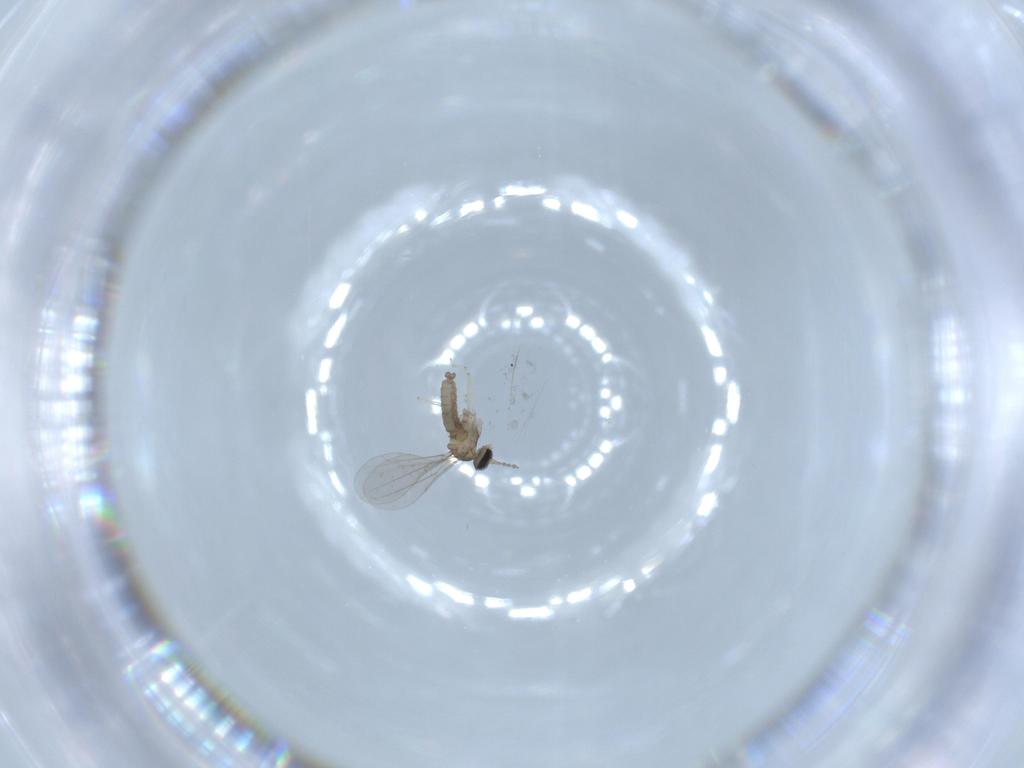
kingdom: Animalia
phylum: Arthropoda
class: Insecta
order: Diptera
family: Cecidomyiidae
